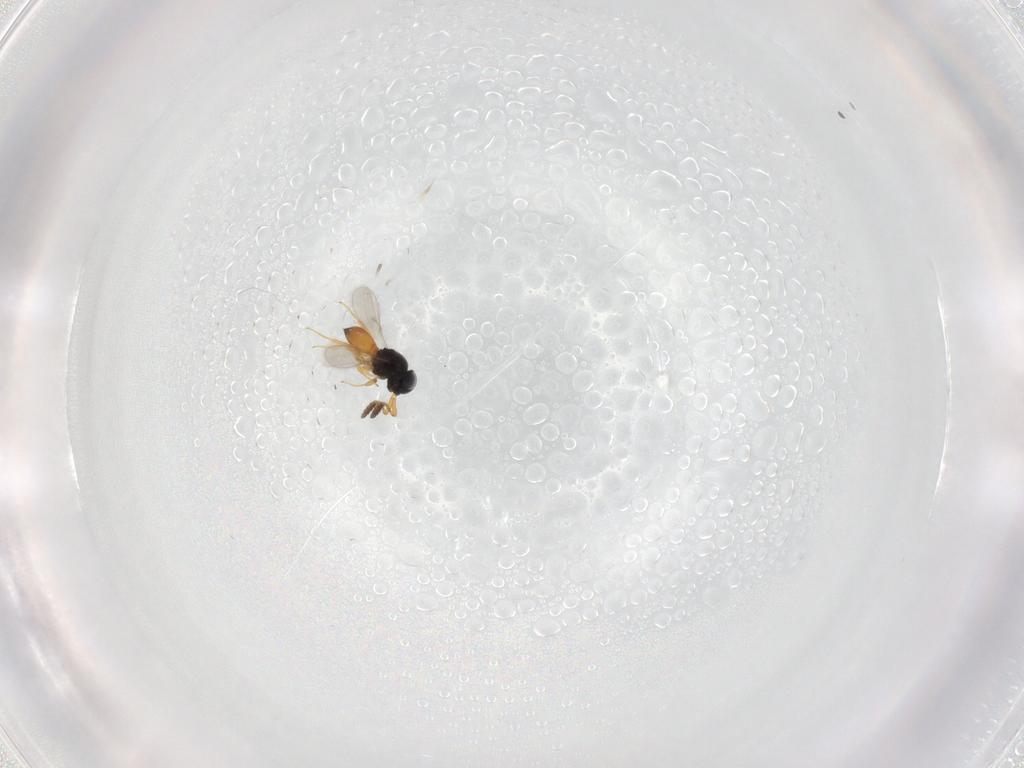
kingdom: Animalia
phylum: Arthropoda
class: Insecta
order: Hymenoptera
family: Scelionidae
